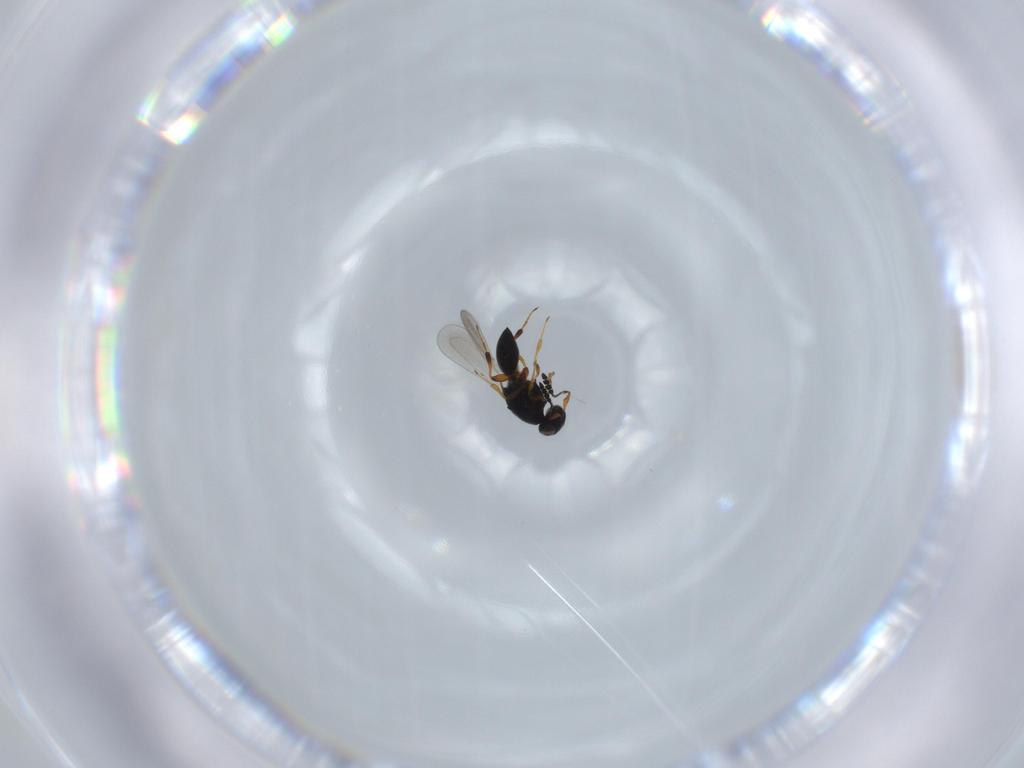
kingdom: Animalia
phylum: Arthropoda
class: Insecta
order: Hymenoptera
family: Platygastridae
